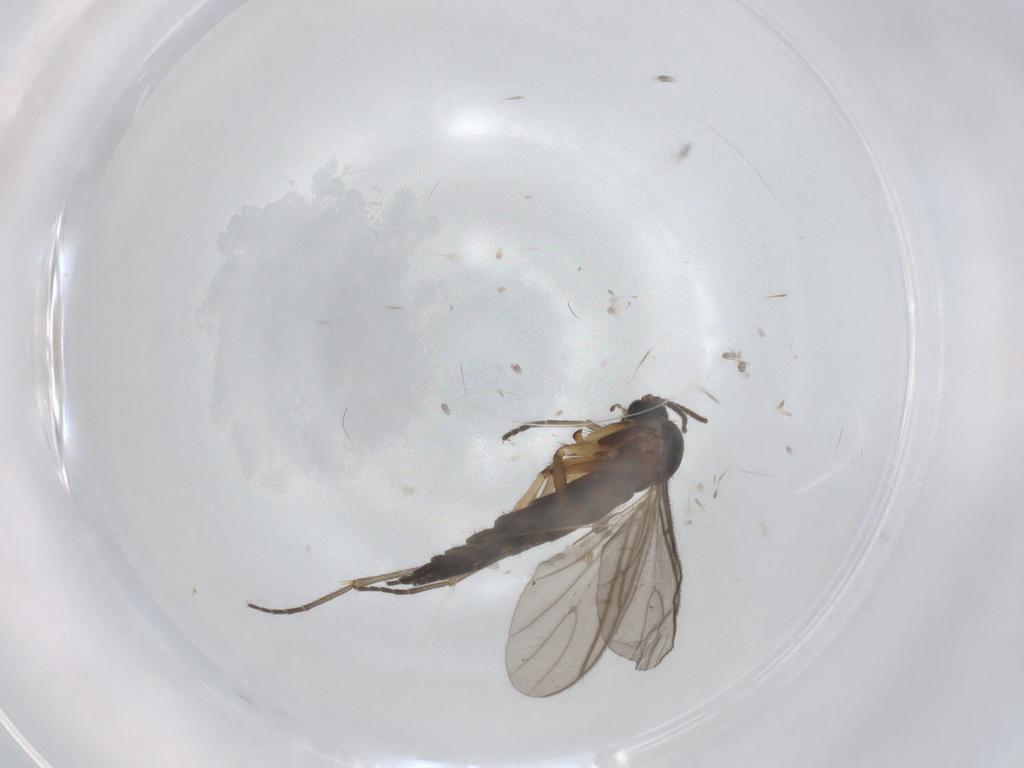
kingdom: Animalia
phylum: Arthropoda
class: Insecta
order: Diptera
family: Sciaridae
